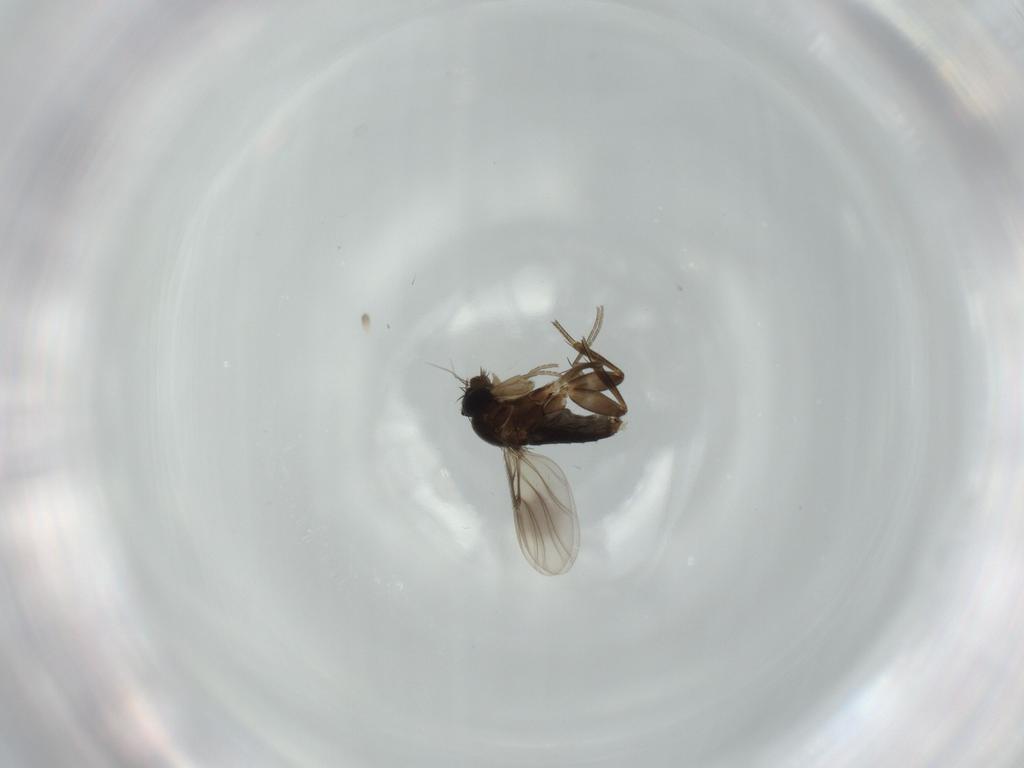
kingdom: Animalia
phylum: Arthropoda
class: Insecta
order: Diptera
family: Phoridae
